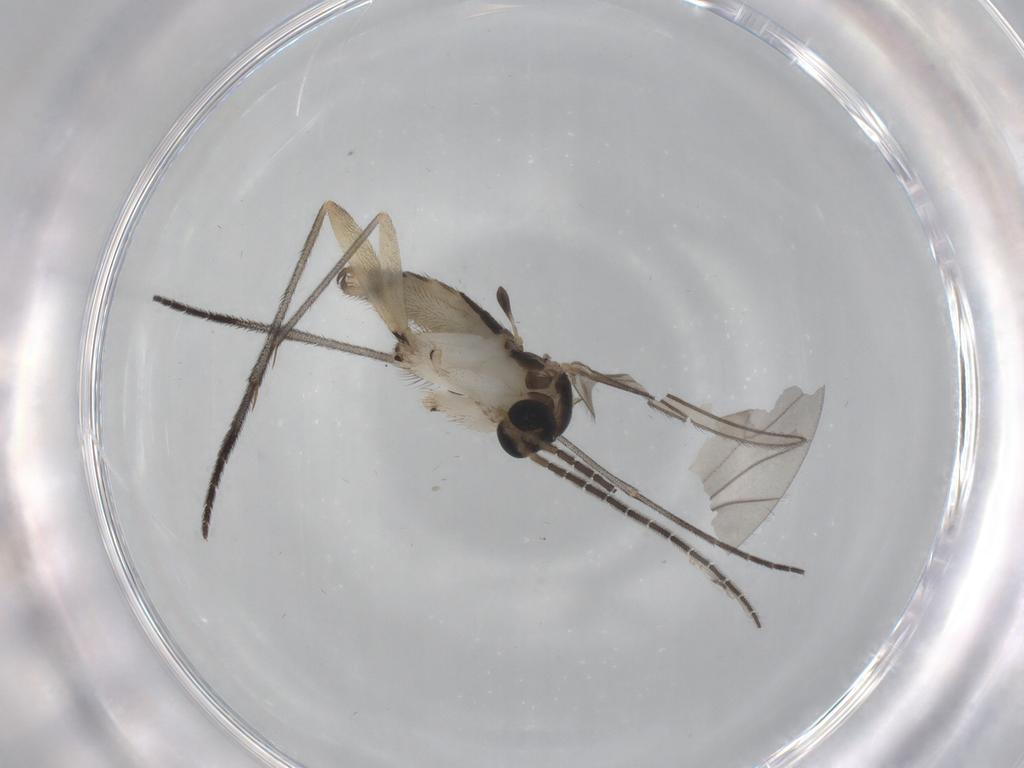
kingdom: Animalia
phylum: Arthropoda
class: Insecta
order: Diptera
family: Sciaridae
